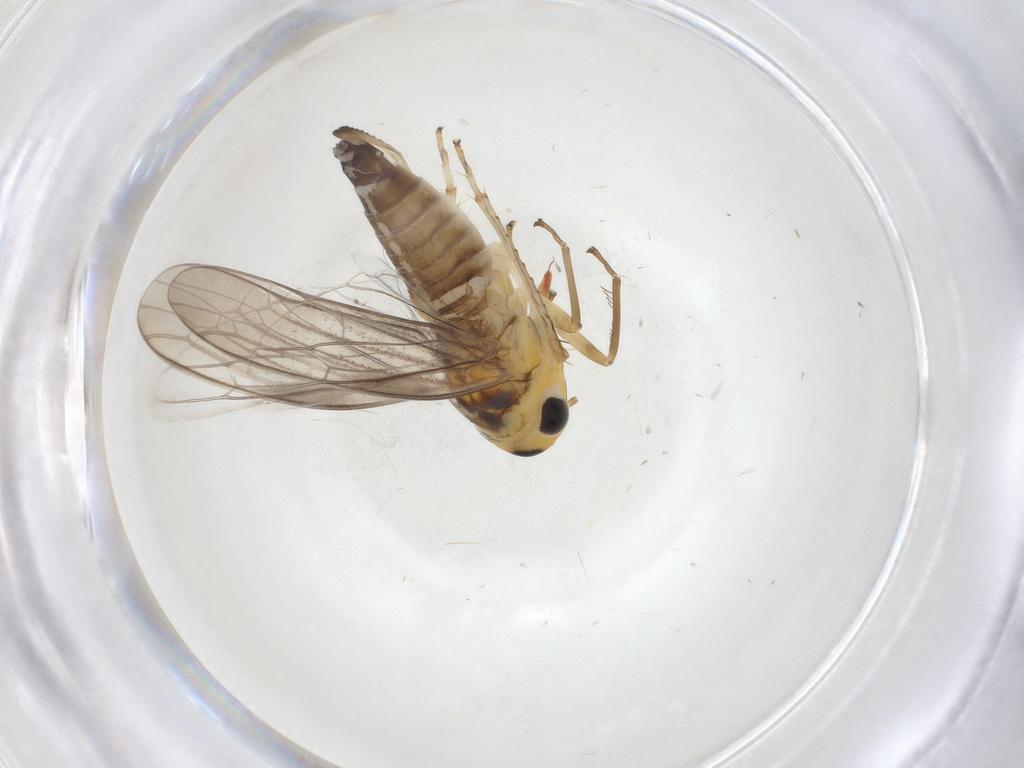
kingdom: Animalia
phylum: Arthropoda
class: Insecta
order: Hemiptera
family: Cicadellidae
